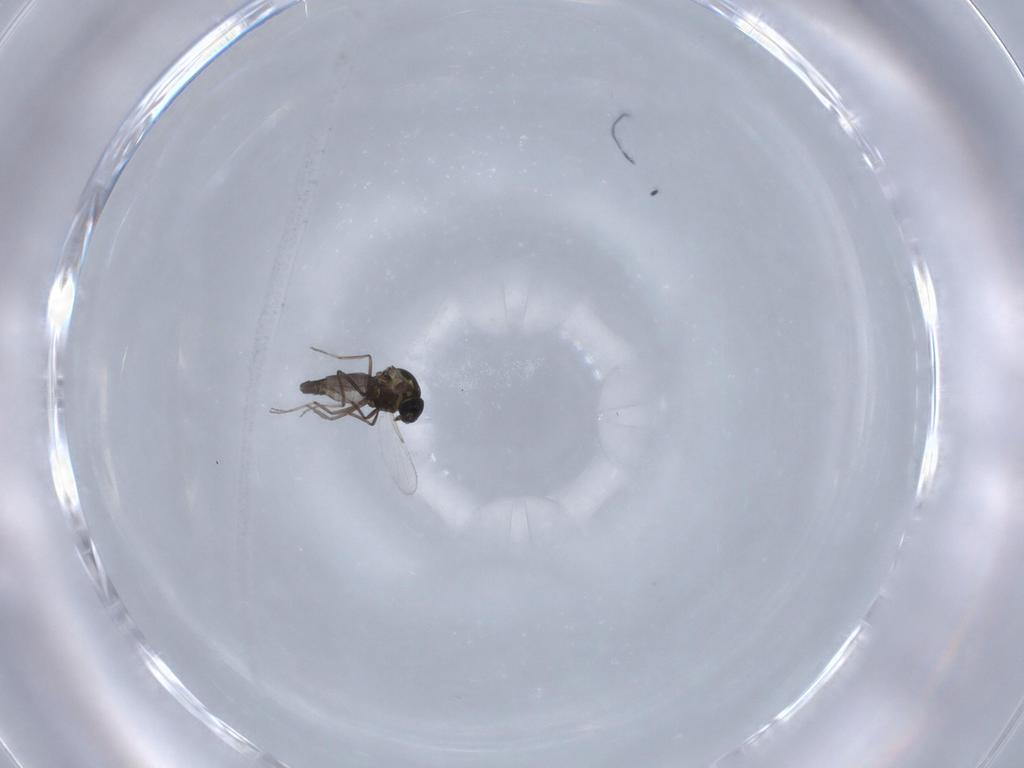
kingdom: Animalia
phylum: Arthropoda
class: Insecta
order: Diptera
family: Ceratopogonidae
